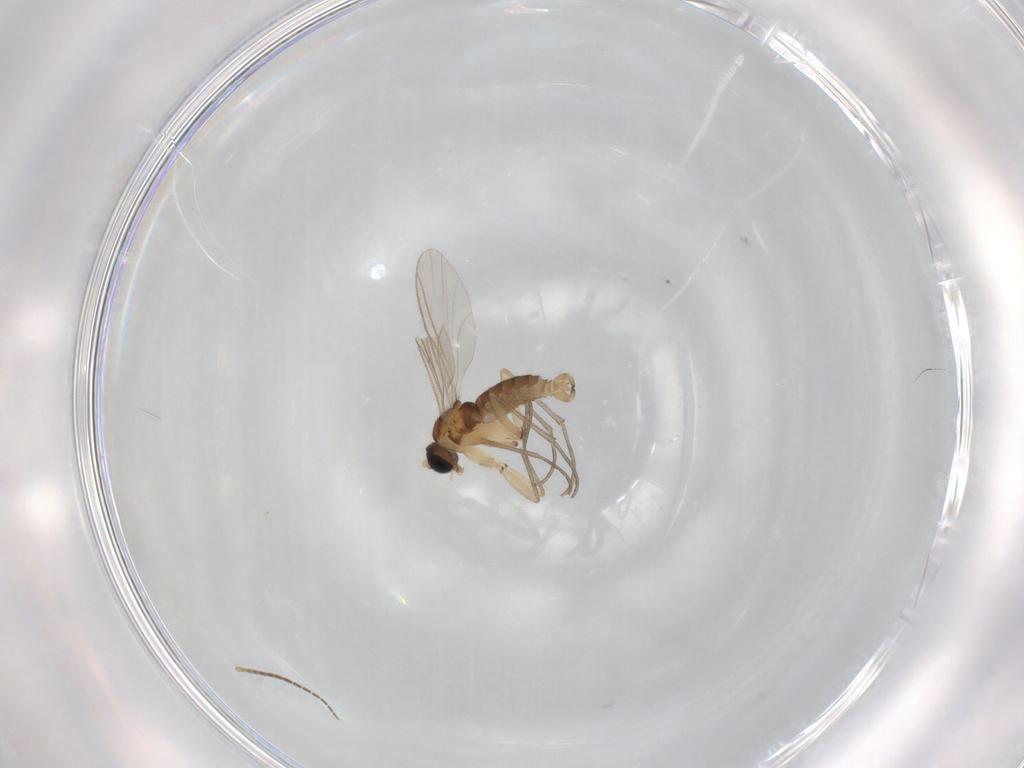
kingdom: Animalia
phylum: Arthropoda
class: Insecta
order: Diptera
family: Sciaridae
